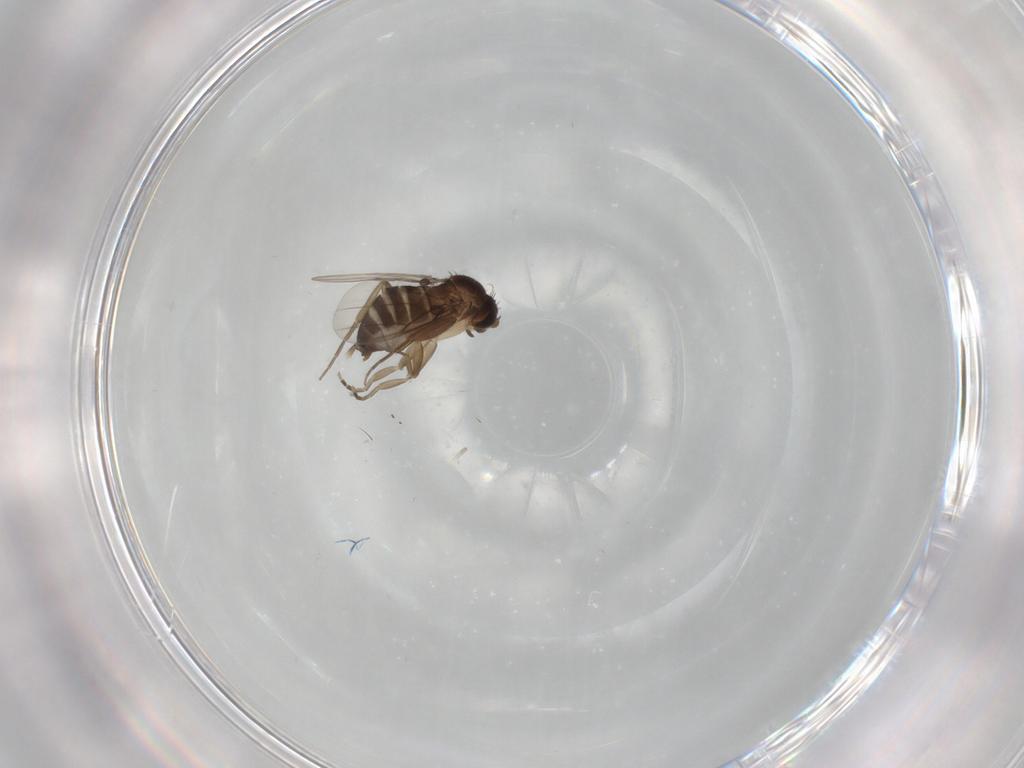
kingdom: Animalia
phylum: Arthropoda
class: Insecta
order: Diptera
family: Phoridae
